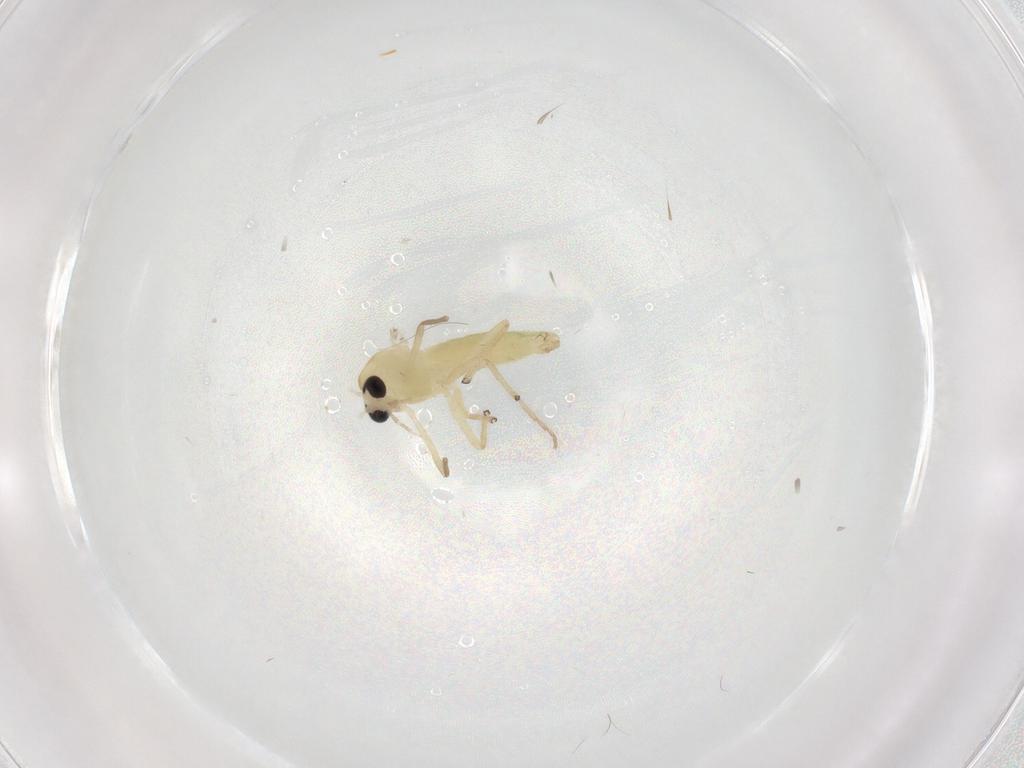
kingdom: Animalia
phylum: Arthropoda
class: Insecta
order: Diptera
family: Chironomidae
